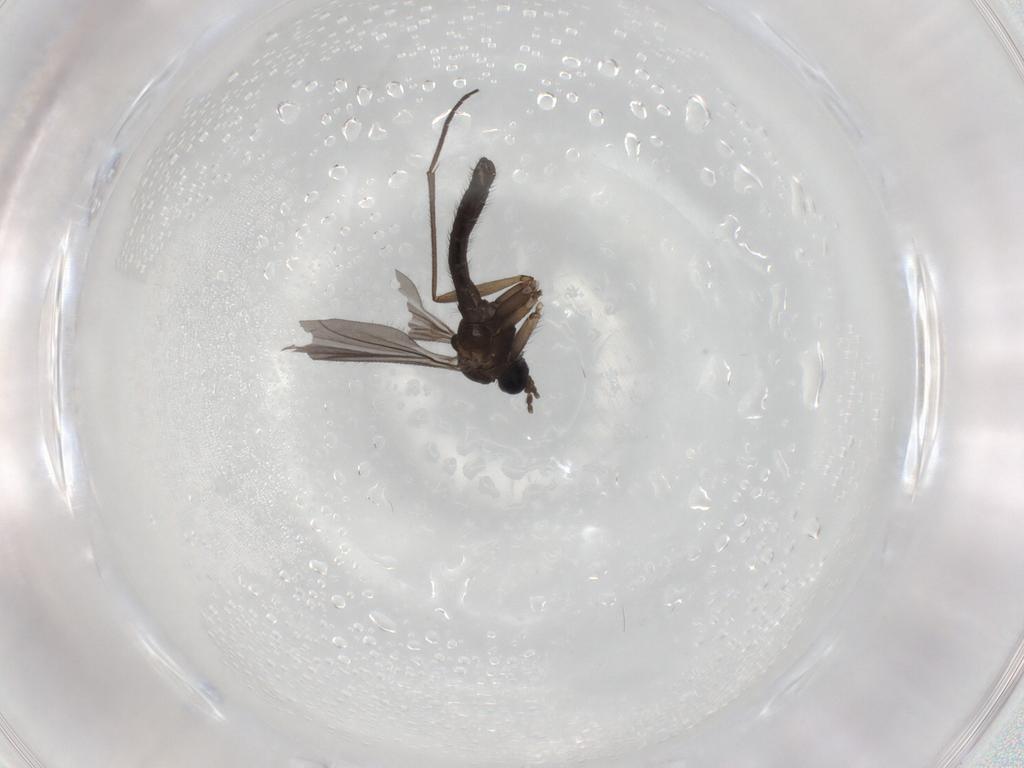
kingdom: Animalia
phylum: Arthropoda
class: Insecta
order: Diptera
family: Sciaridae
